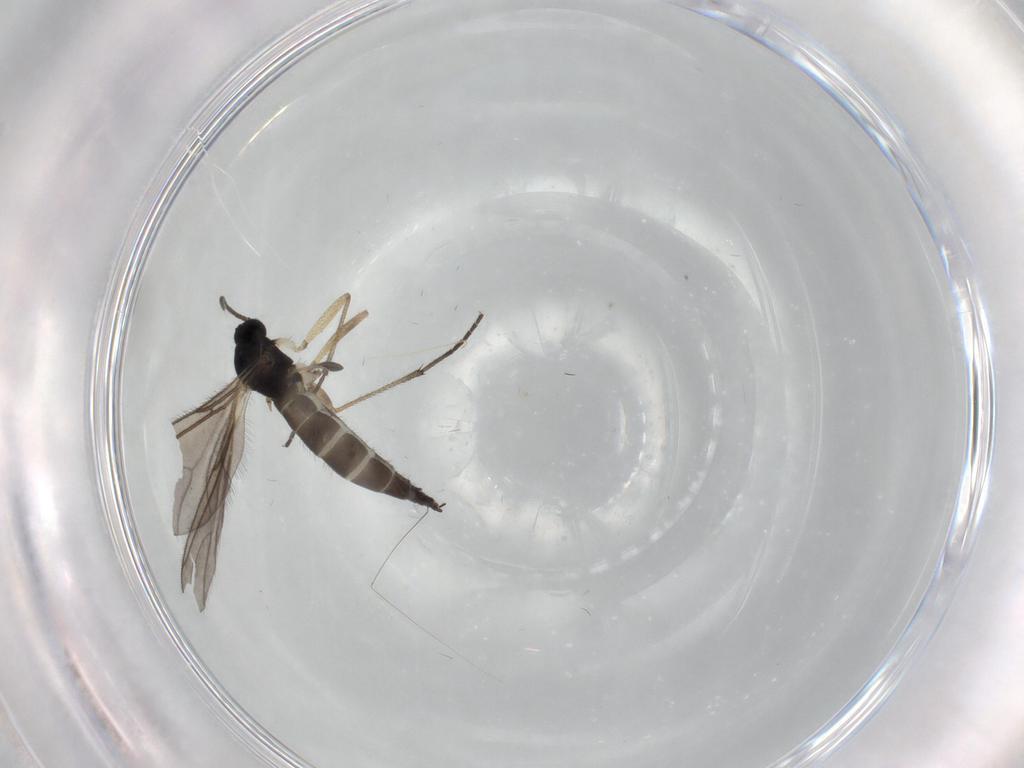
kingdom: Animalia
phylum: Arthropoda
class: Insecta
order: Diptera
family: Sciaridae
